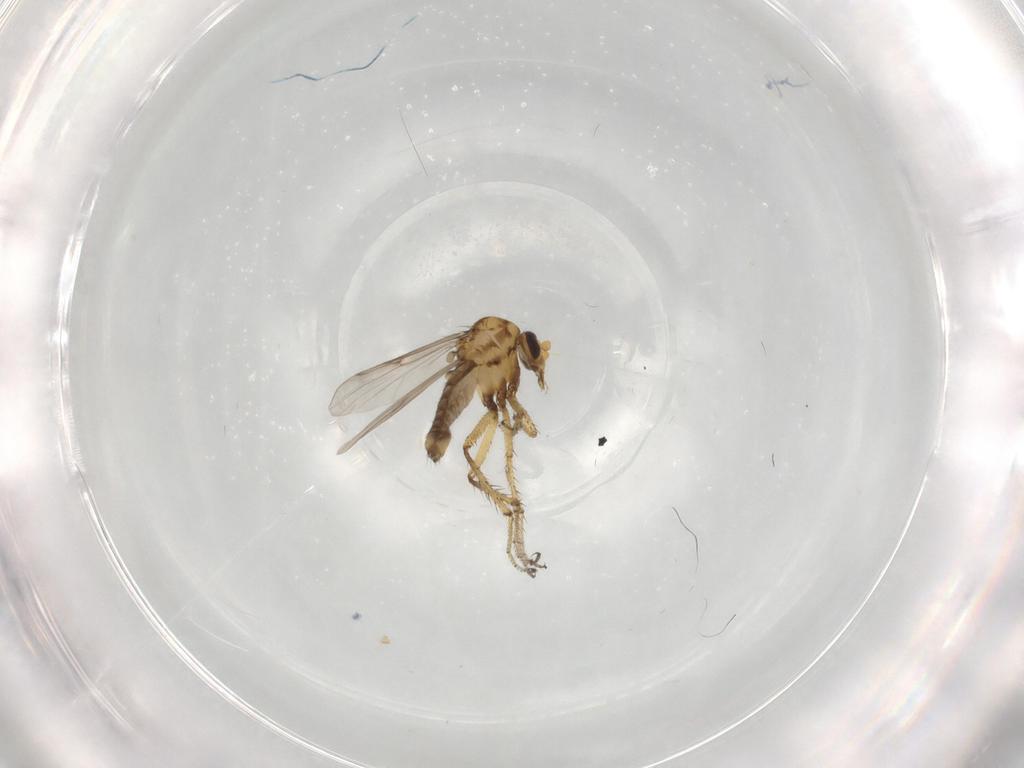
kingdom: Animalia
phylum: Arthropoda
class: Insecta
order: Diptera
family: Ceratopogonidae
